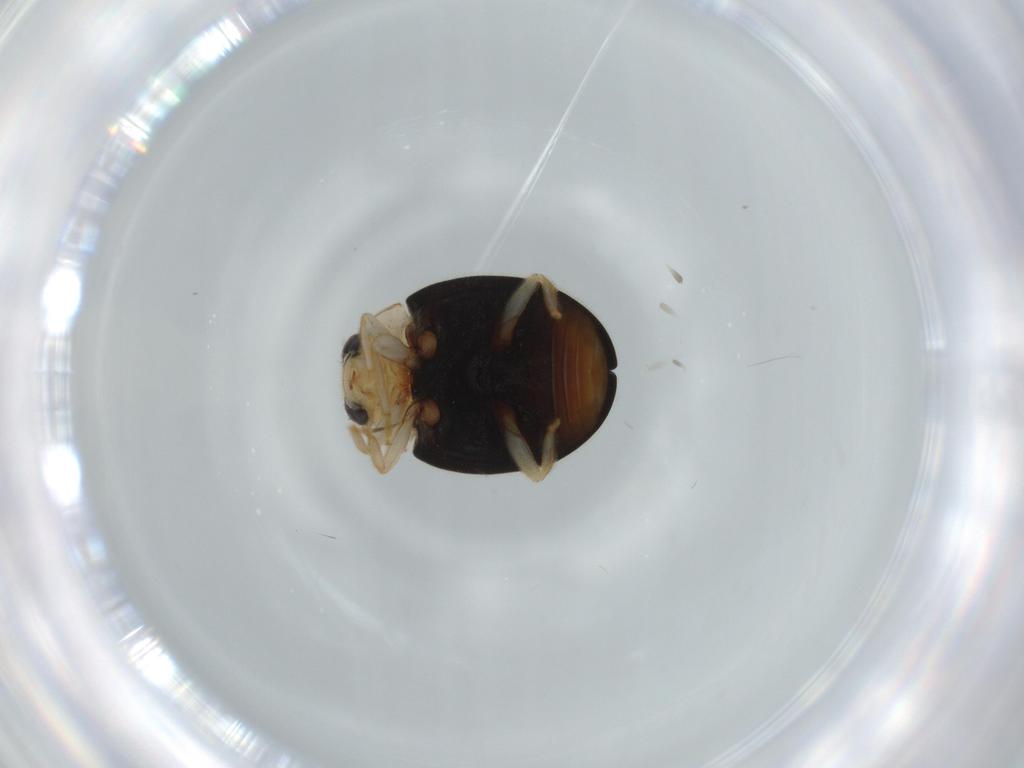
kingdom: Animalia
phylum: Arthropoda
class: Insecta
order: Coleoptera
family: Coccinellidae
